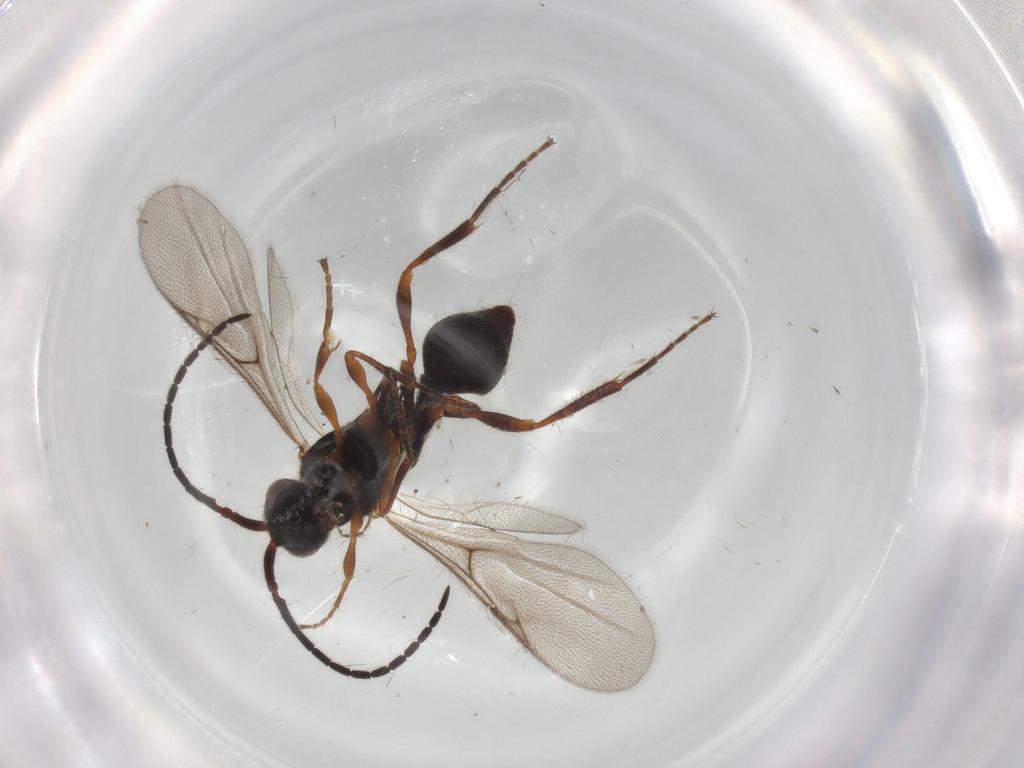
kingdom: Animalia
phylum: Arthropoda
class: Insecta
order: Hymenoptera
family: Diapriidae
